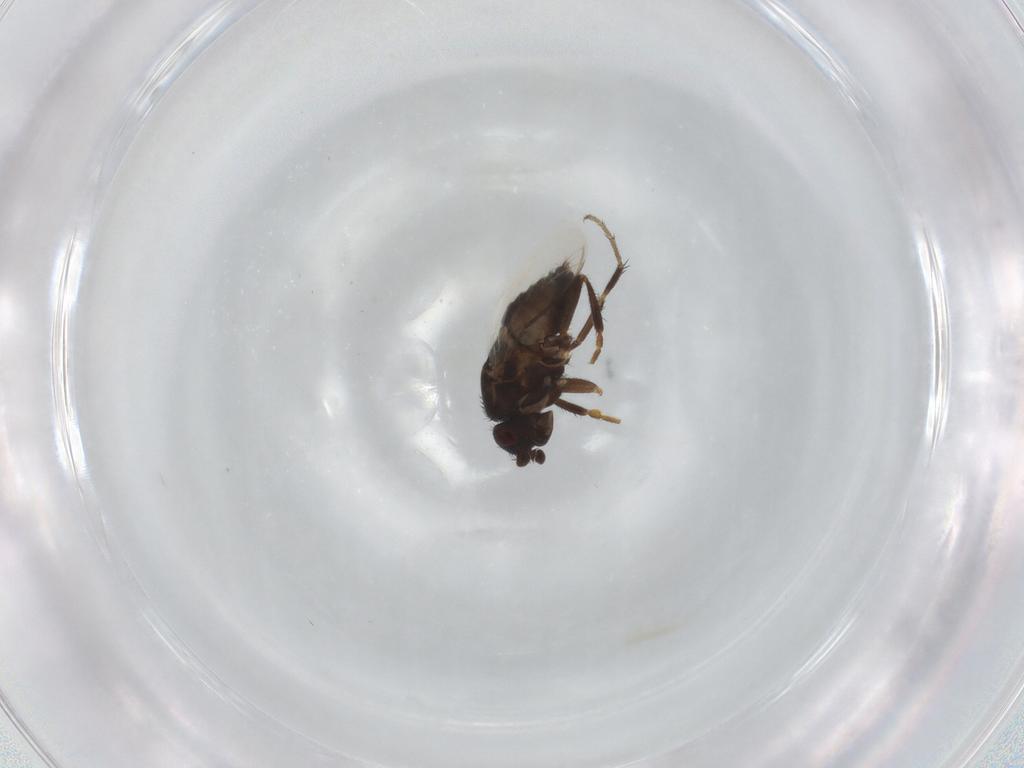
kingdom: Animalia
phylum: Arthropoda
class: Insecta
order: Diptera
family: Sphaeroceridae
